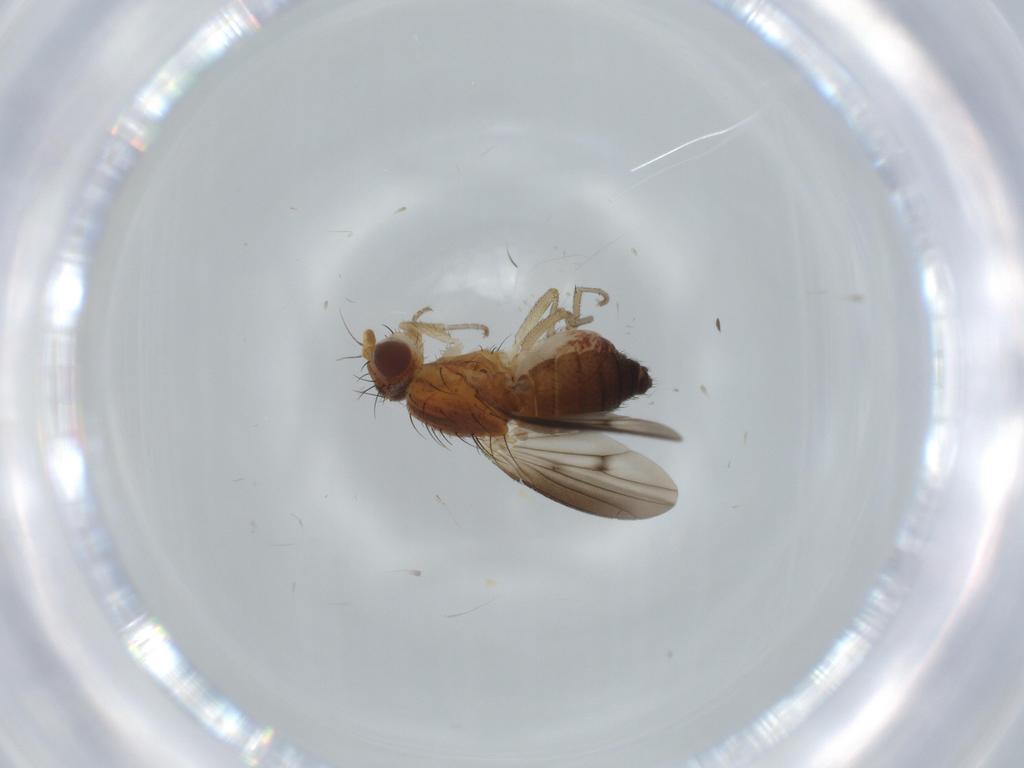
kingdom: Animalia
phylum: Arthropoda
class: Insecta
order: Diptera
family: Heleomyzidae
